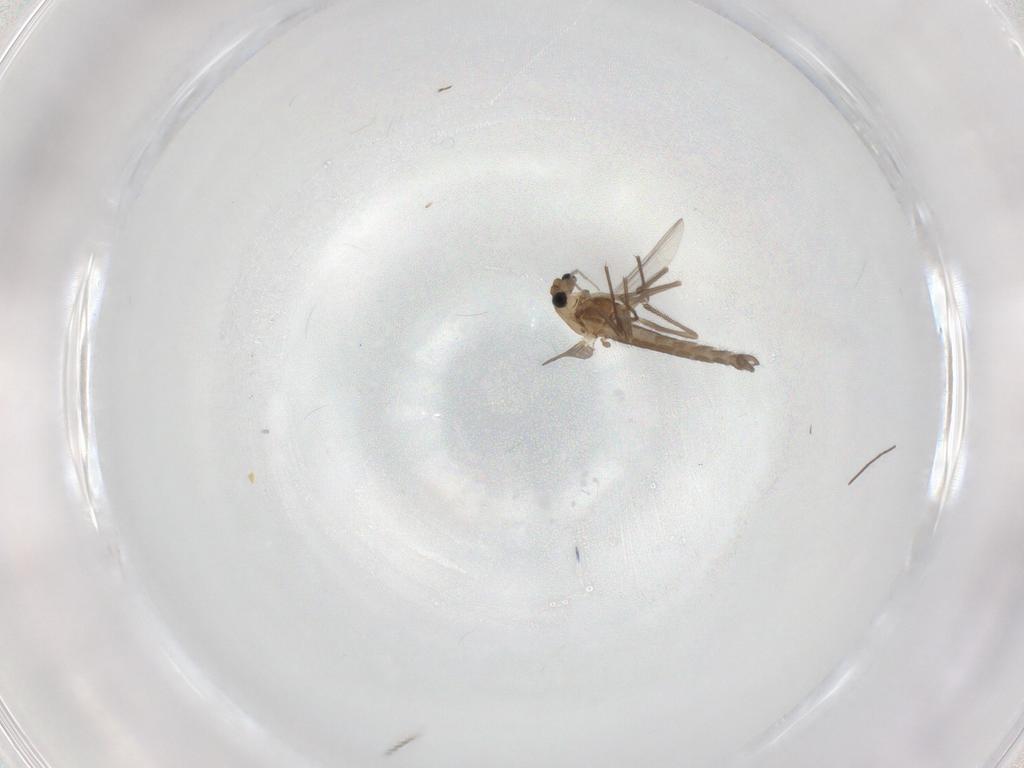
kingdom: Animalia
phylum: Arthropoda
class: Insecta
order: Diptera
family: Chironomidae
